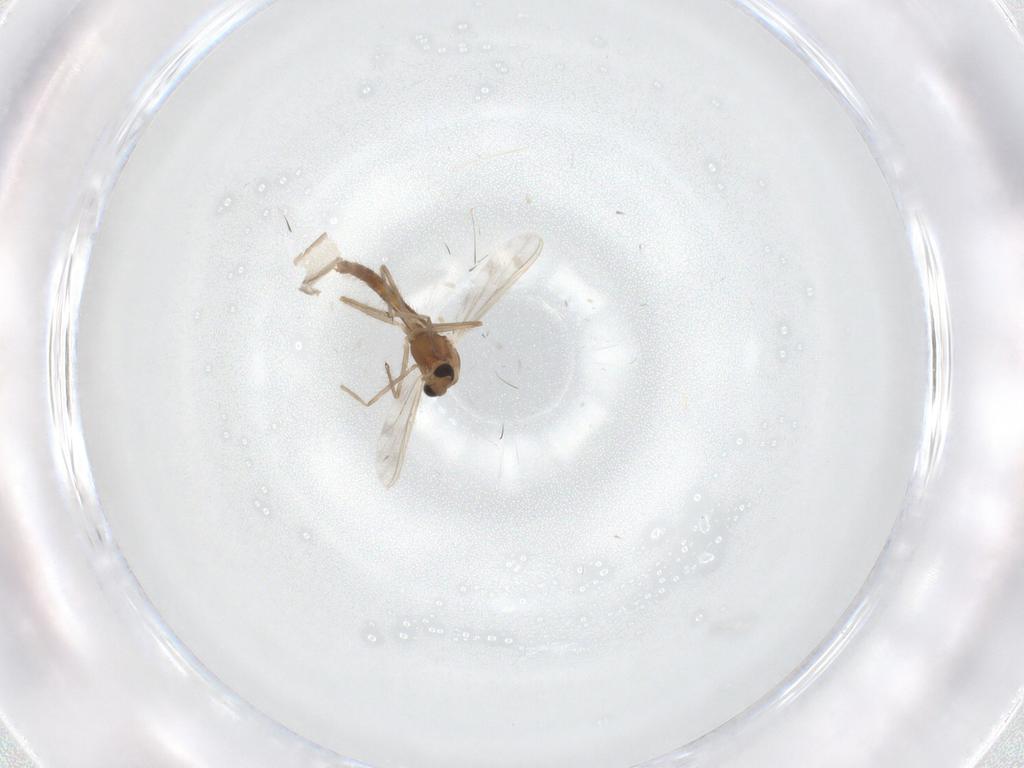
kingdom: Animalia
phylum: Arthropoda
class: Insecta
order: Diptera
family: Chironomidae
